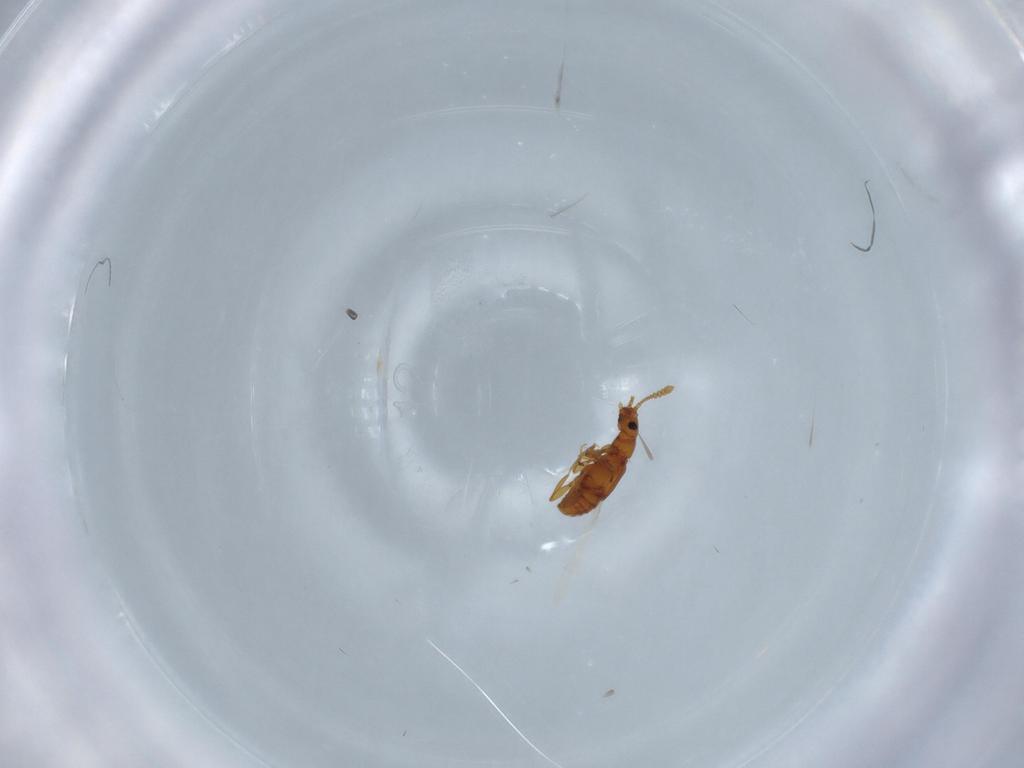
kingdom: Animalia
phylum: Arthropoda
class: Insecta
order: Coleoptera
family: Staphylinidae
